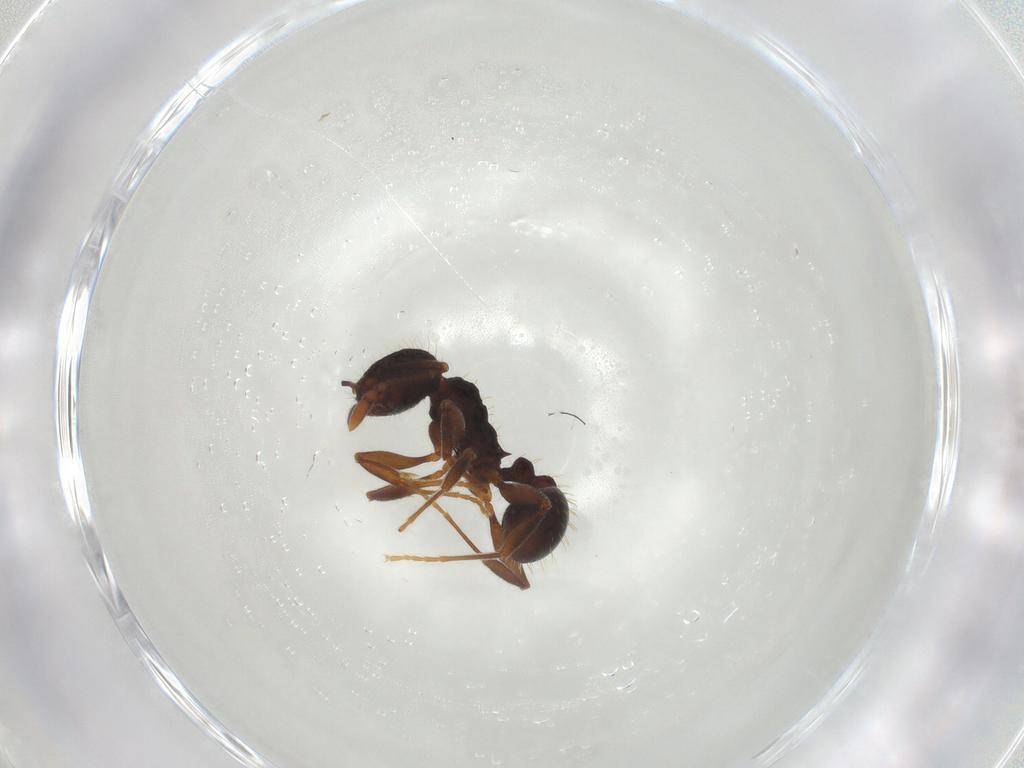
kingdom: Animalia
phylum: Arthropoda
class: Insecta
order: Hymenoptera
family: Formicidae
